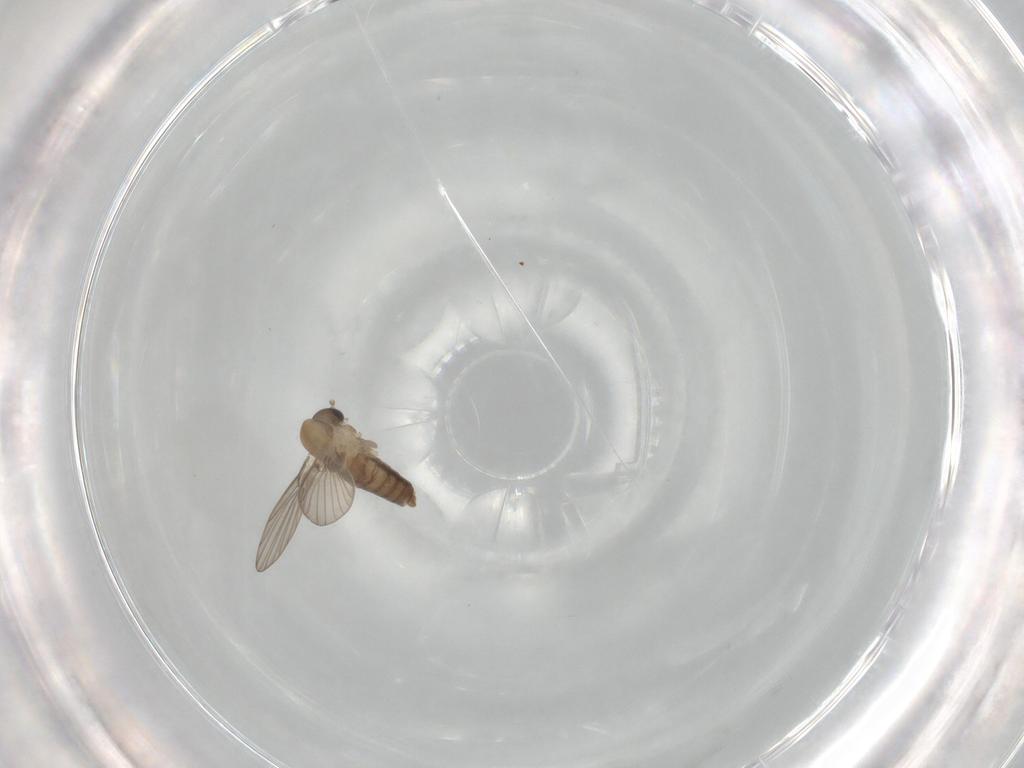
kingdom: Animalia
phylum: Arthropoda
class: Insecta
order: Diptera
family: Psychodidae
